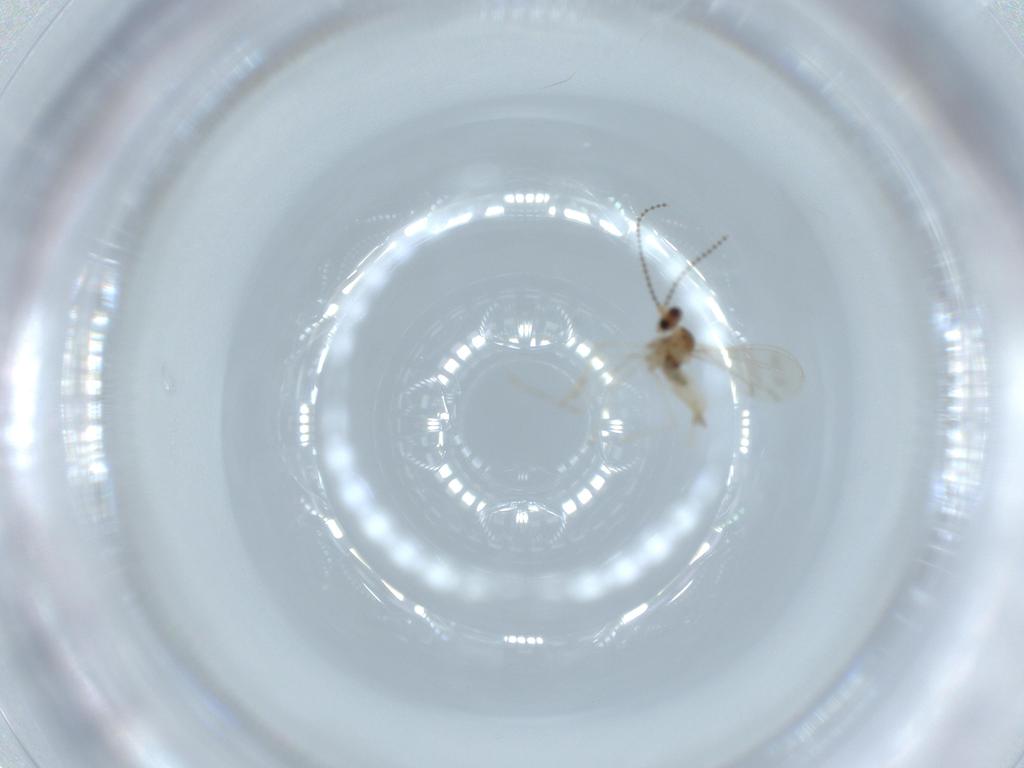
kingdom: Animalia
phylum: Arthropoda
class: Insecta
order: Diptera
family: Cecidomyiidae
